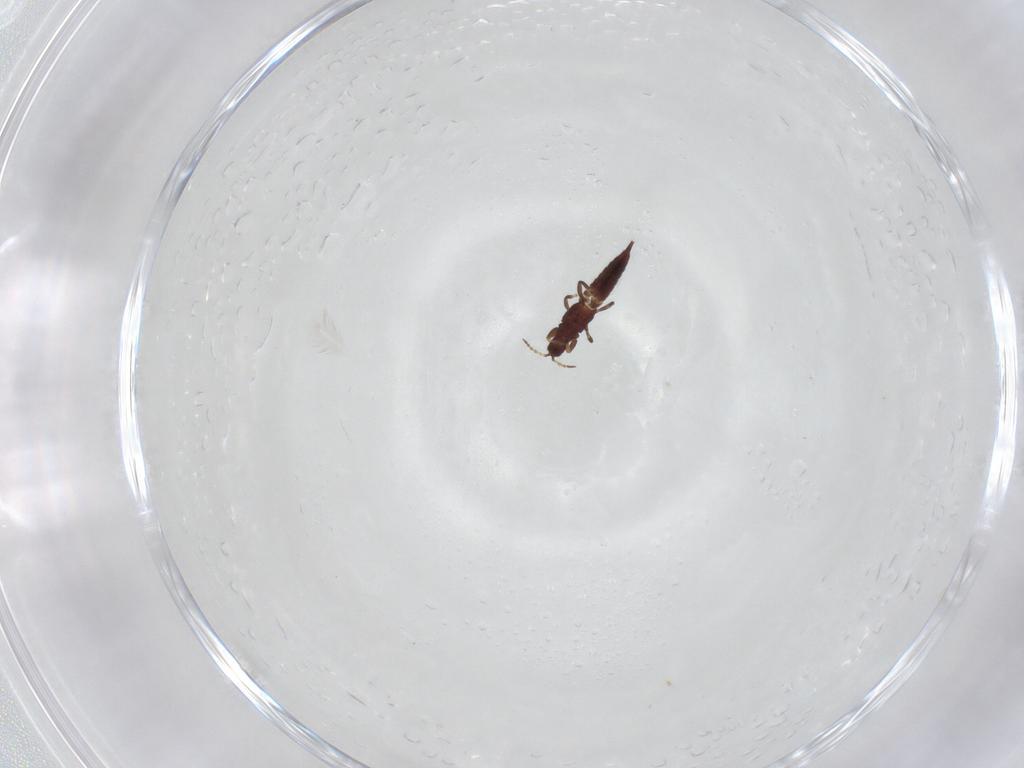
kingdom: Animalia
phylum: Arthropoda
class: Insecta
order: Thysanoptera
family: Phlaeothripidae
